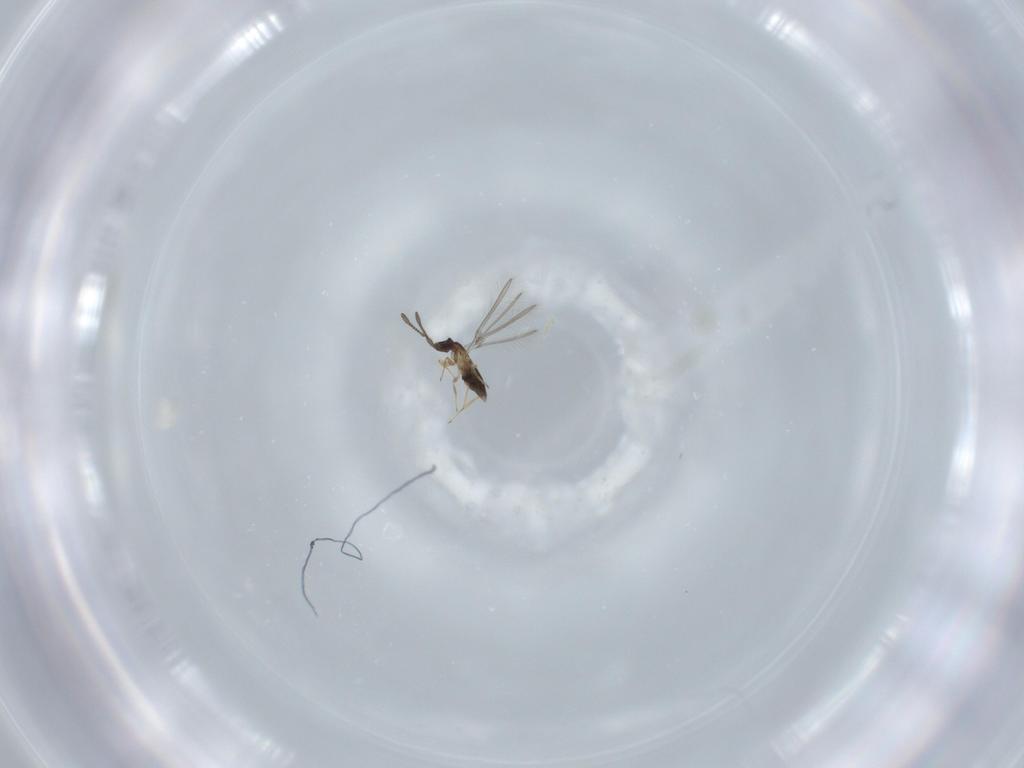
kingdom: Animalia
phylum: Arthropoda
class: Insecta
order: Hymenoptera
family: Mymaridae
